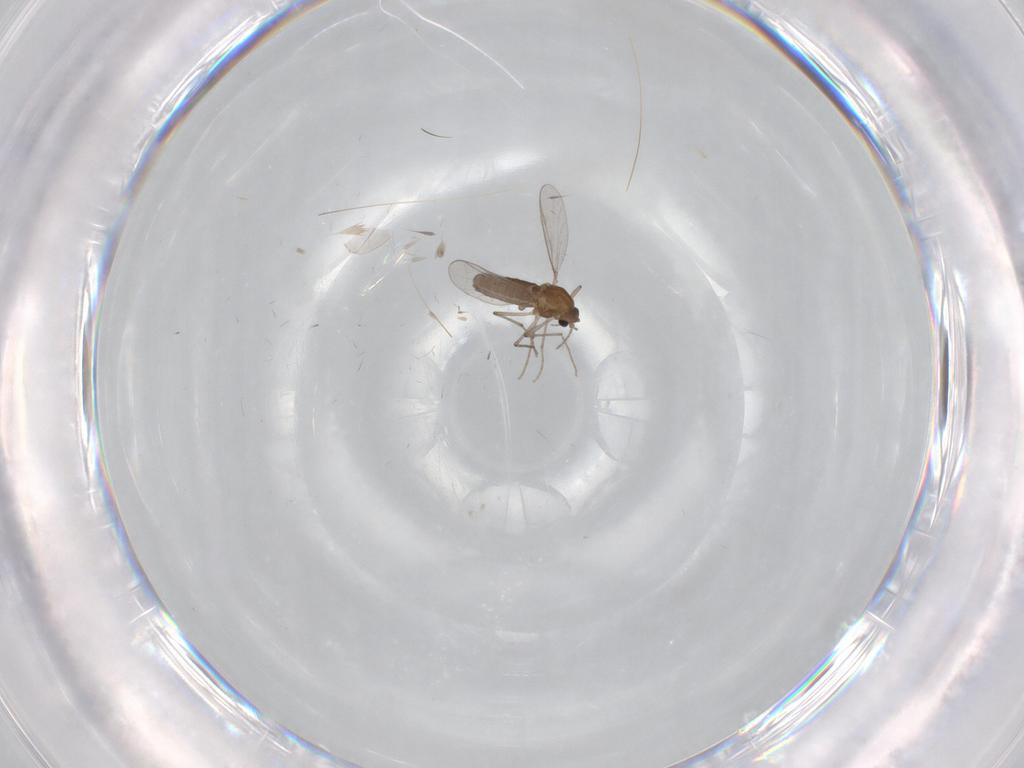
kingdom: Animalia
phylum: Arthropoda
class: Insecta
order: Diptera
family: Chironomidae
